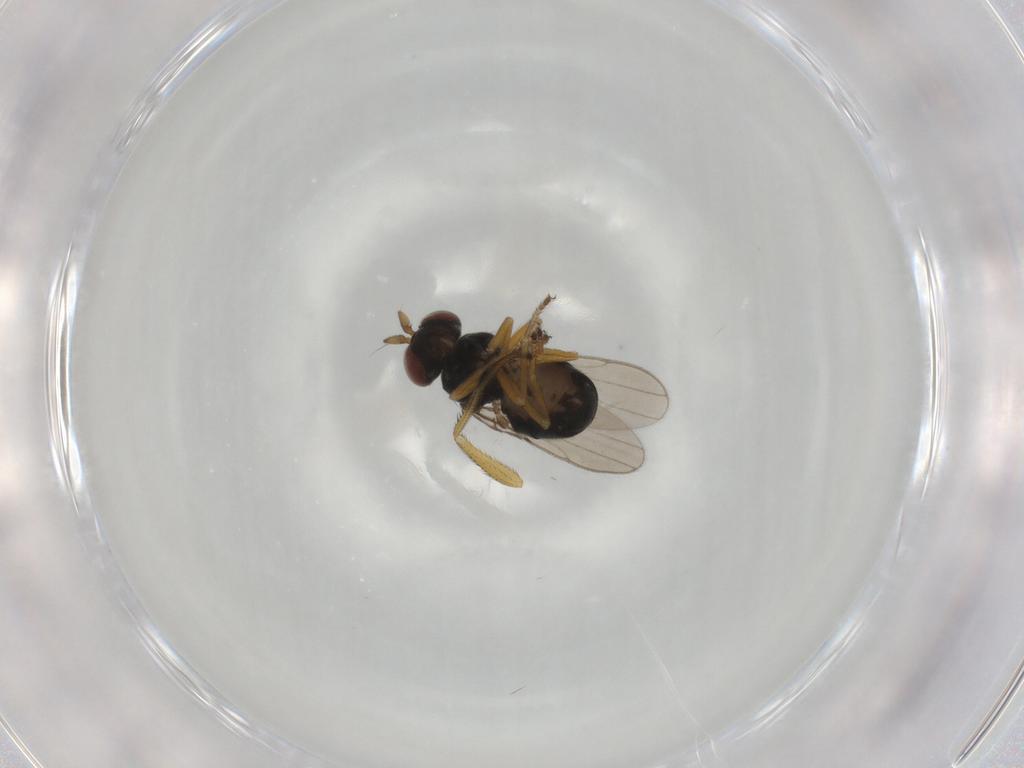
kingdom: Animalia
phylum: Arthropoda
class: Insecta
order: Diptera
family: Ephydridae
